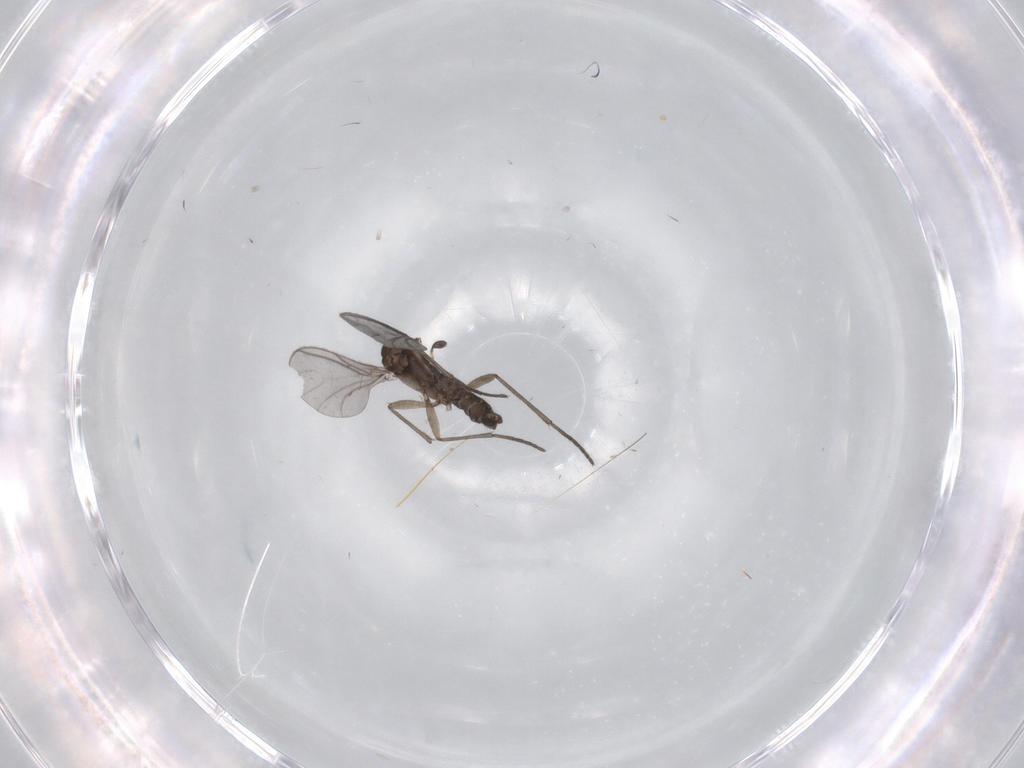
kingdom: Animalia
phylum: Arthropoda
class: Insecta
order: Diptera
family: Sciaridae
